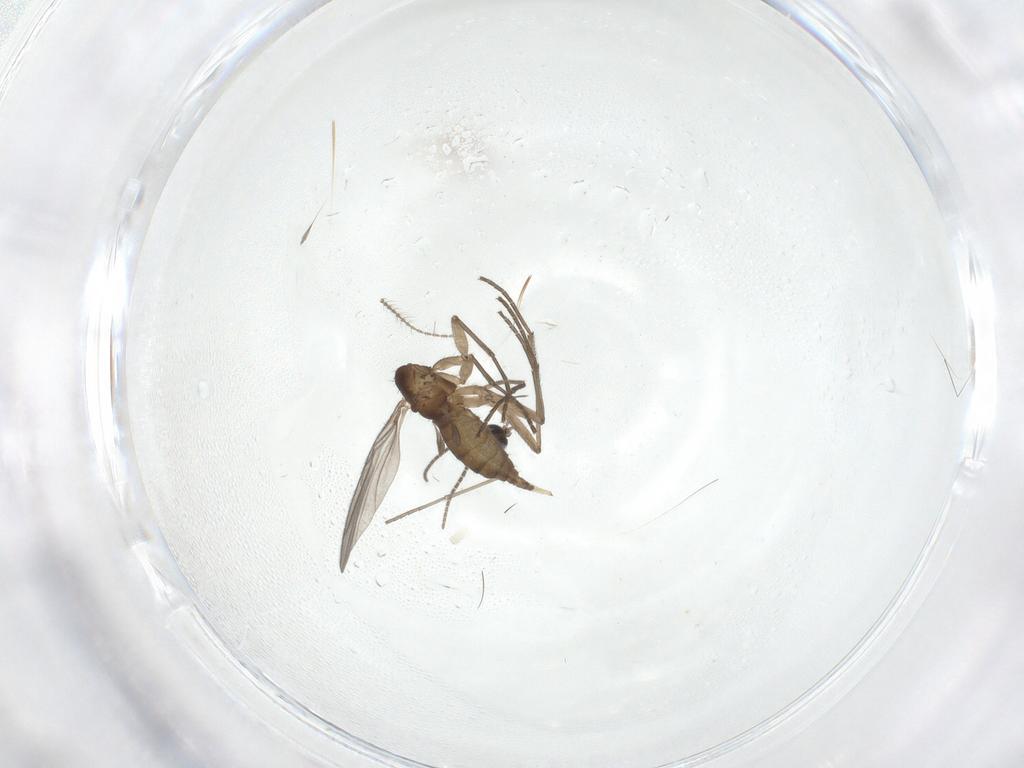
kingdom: Animalia
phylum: Arthropoda
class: Insecta
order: Diptera
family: Ceratopogonidae
